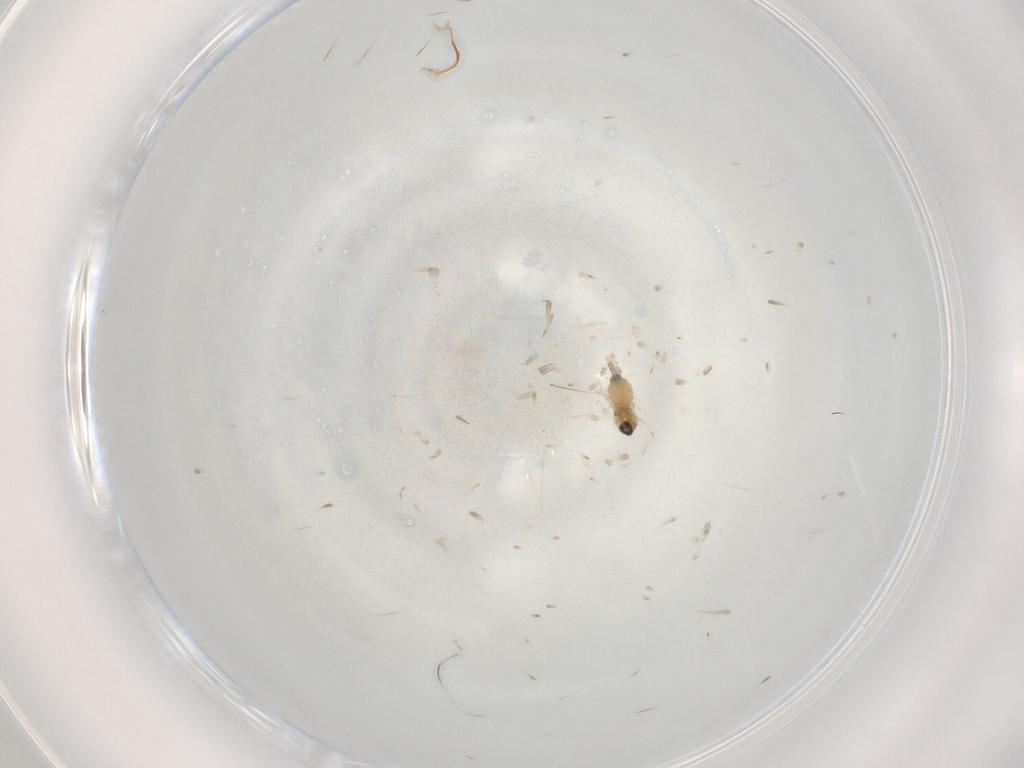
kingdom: Animalia
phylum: Arthropoda
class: Insecta
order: Diptera
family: Cecidomyiidae
